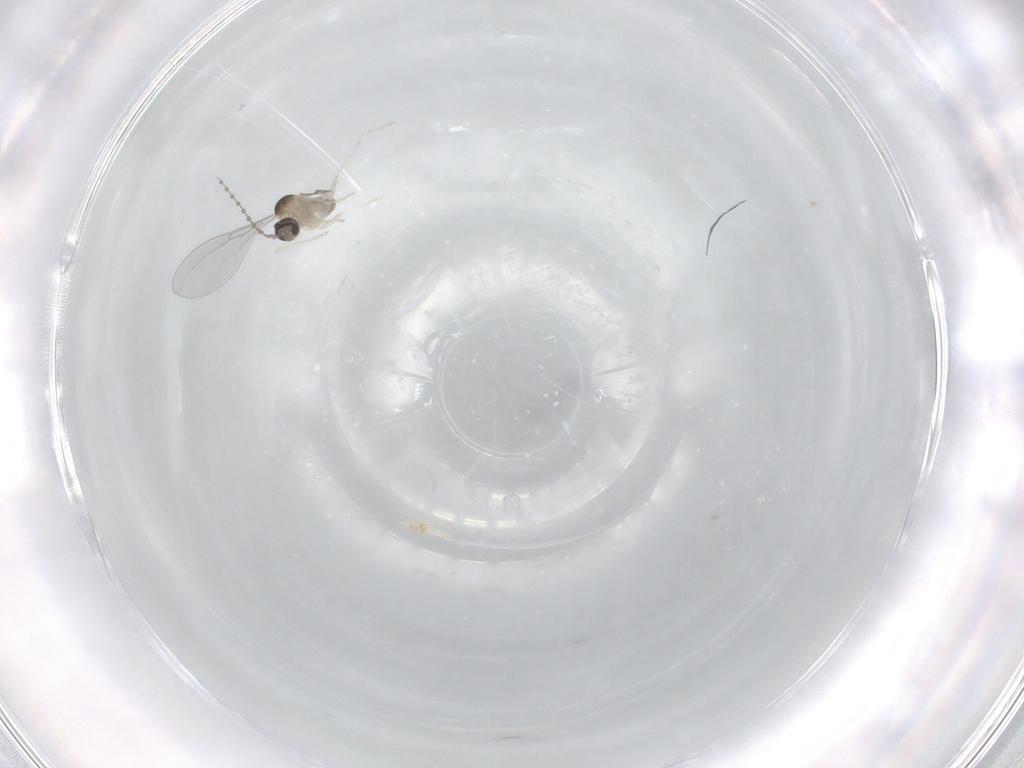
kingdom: Animalia
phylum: Arthropoda
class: Insecta
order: Diptera
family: Cecidomyiidae
